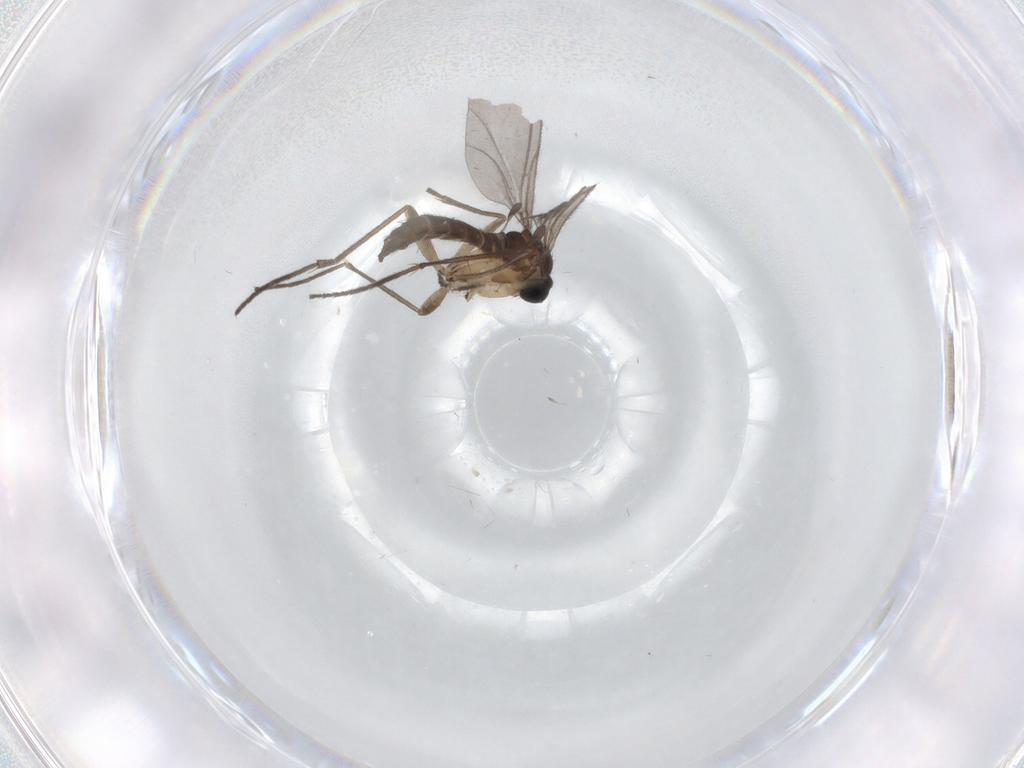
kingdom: Animalia
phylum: Arthropoda
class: Insecta
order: Diptera
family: Sciaridae
